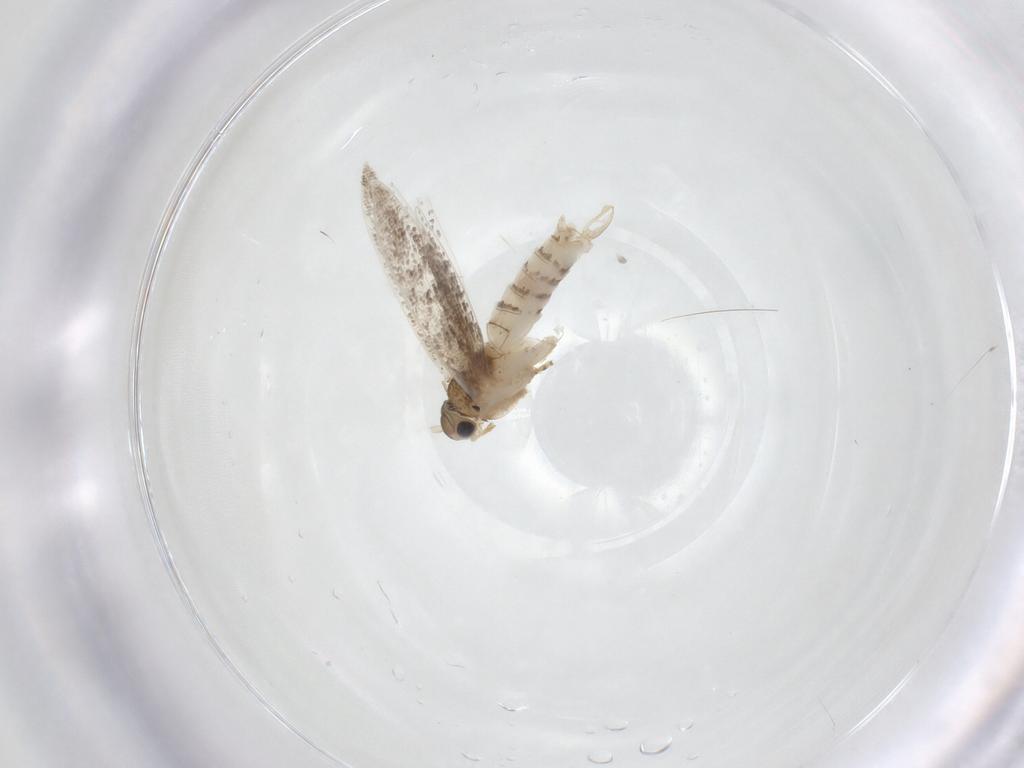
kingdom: Animalia
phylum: Arthropoda
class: Insecta
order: Lepidoptera
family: Dryadaulidae
